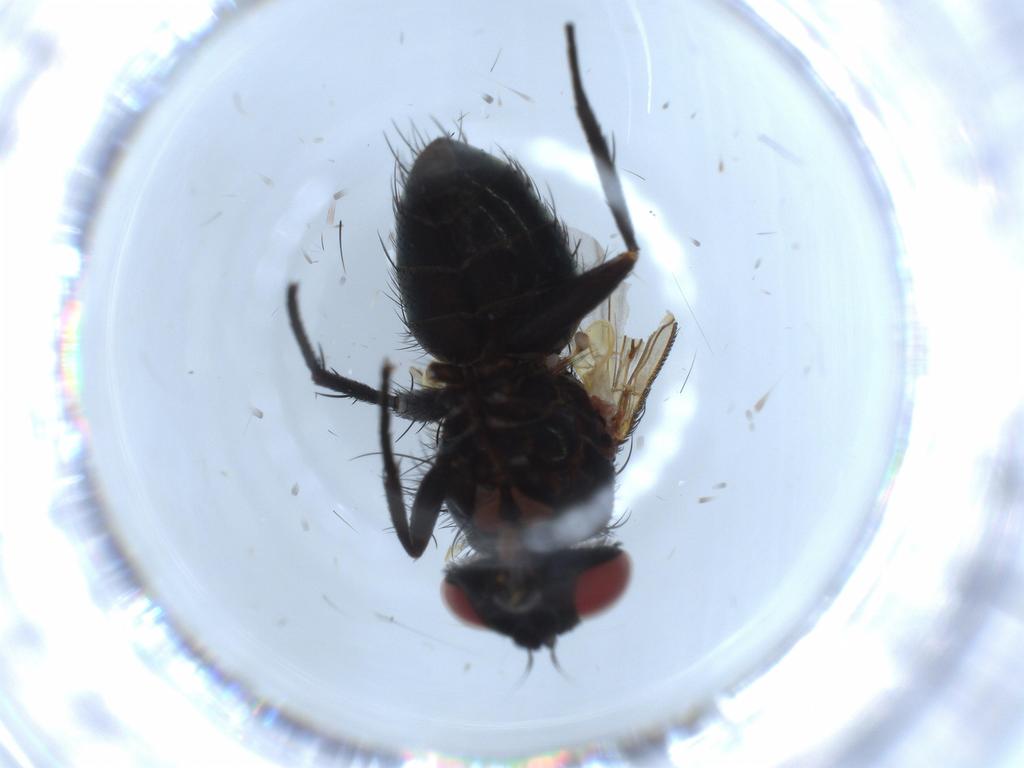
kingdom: Animalia
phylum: Arthropoda
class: Insecta
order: Diptera
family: Tachinidae
